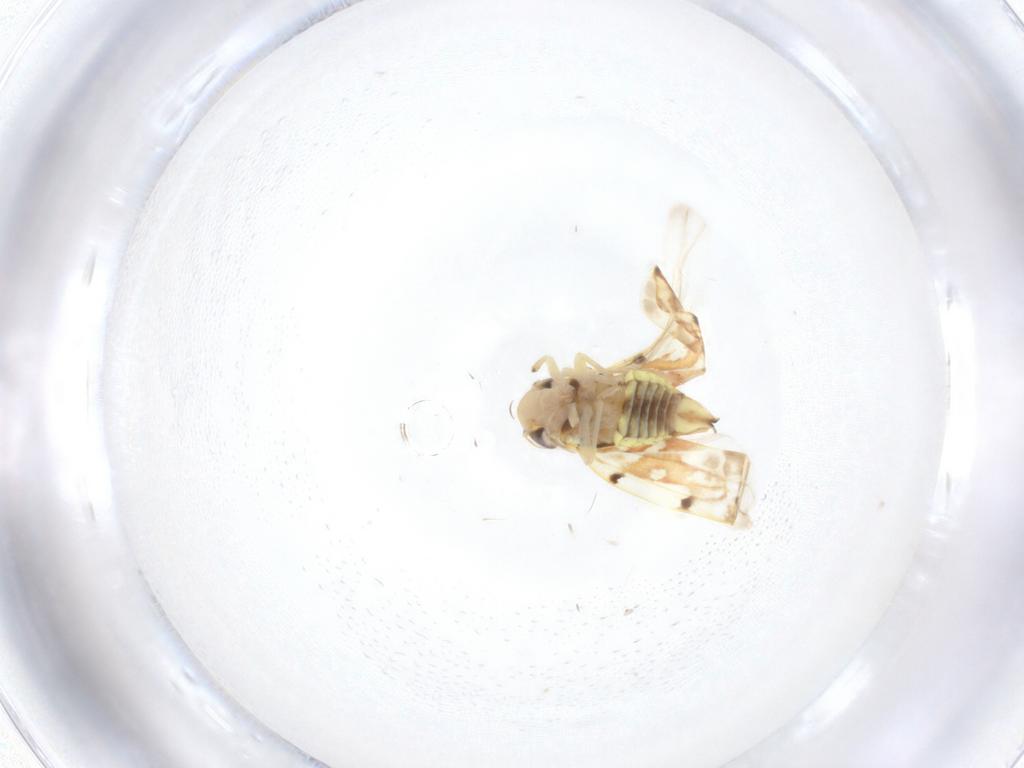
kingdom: Animalia
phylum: Arthropoda
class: Insecta
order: Hemiptera
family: Cicadellidae
